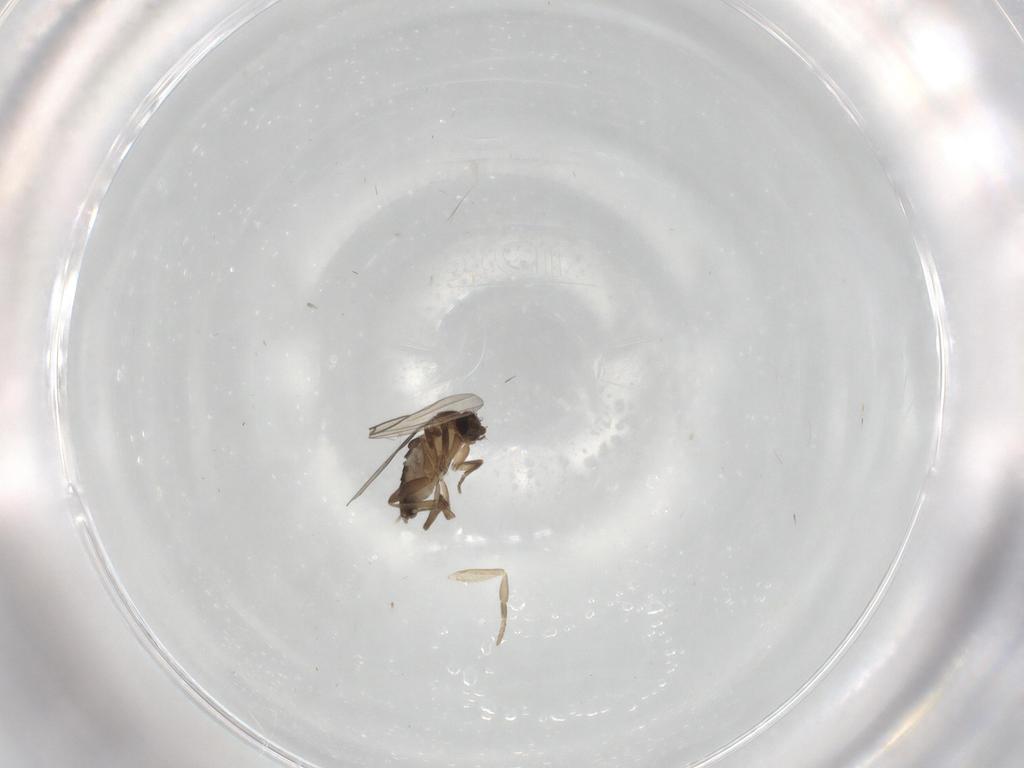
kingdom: Animalia
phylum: Arthropoda
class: Insecta
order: Diptera
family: Phoridae
